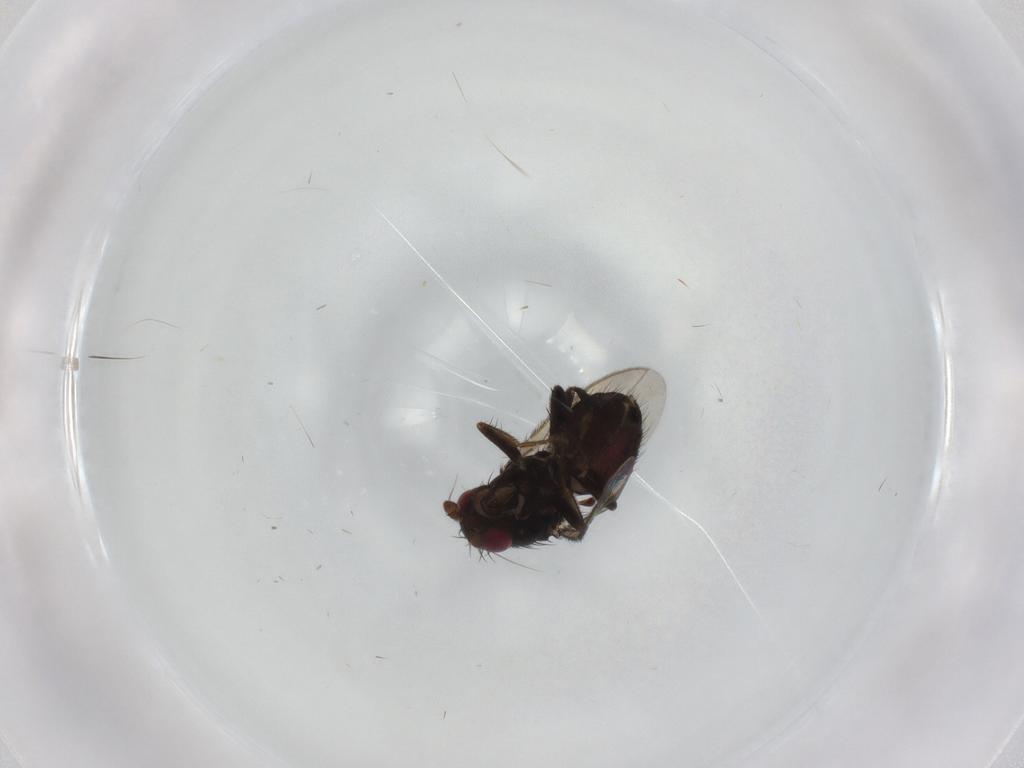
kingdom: Animalia
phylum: Arthropoda
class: Insecta
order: Diptera
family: Sphaeroceridae
